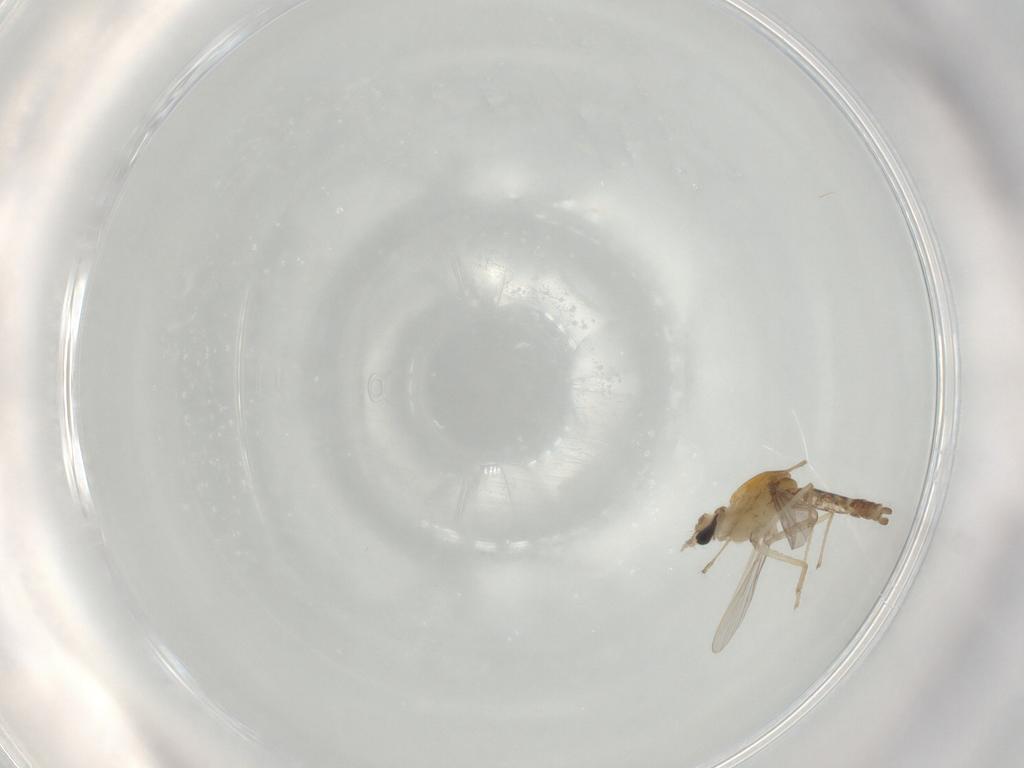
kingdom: Animalia
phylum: Arthropoda
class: Insecta
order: Diptera
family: Chironomidae
